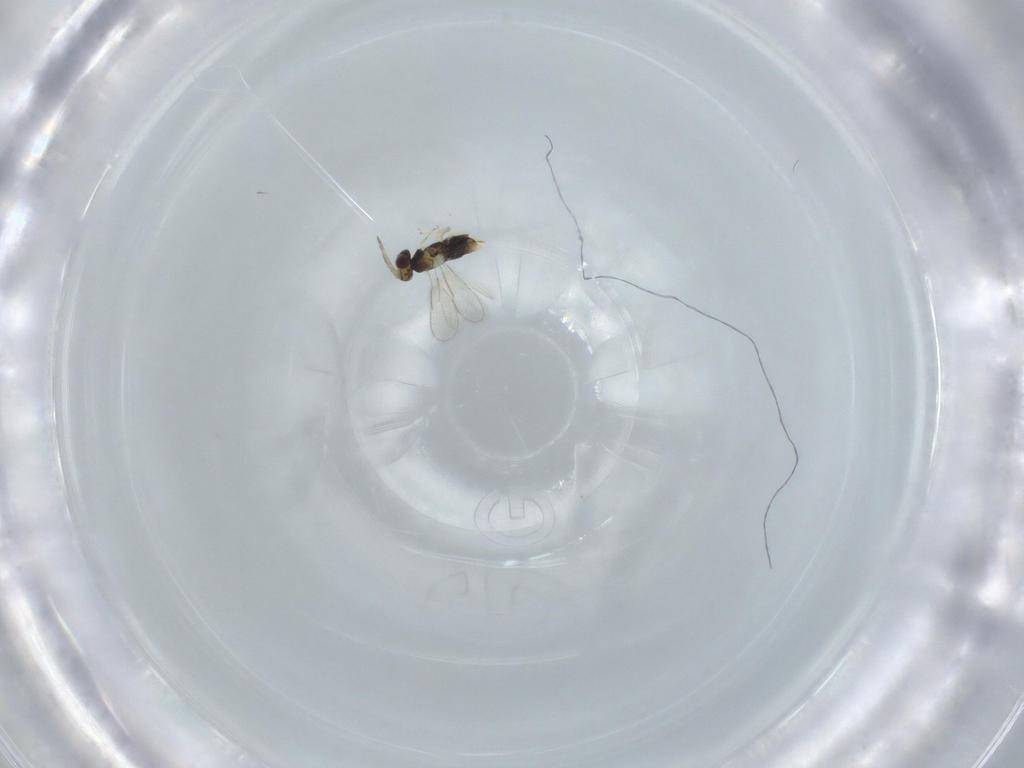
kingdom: Animalia
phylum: Arthropoda
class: Insecta
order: Hymenoptera
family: Aphelinidae
